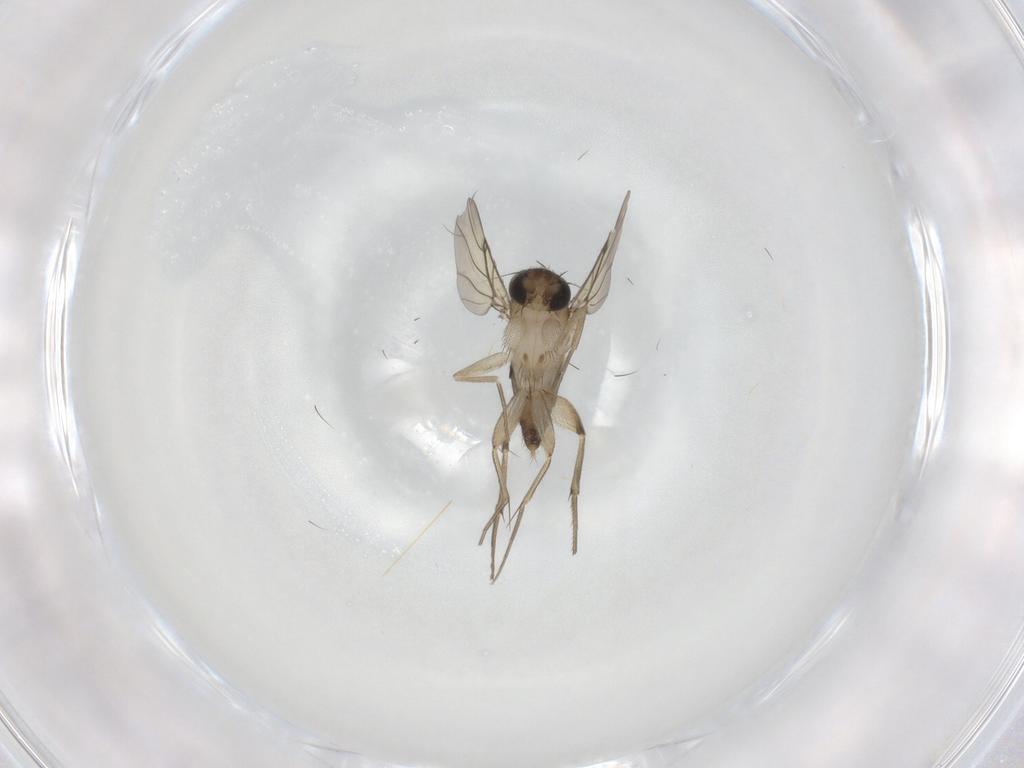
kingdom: Animalia
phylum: Arthropoda
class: Insecta
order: Diptera
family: Phoridae
